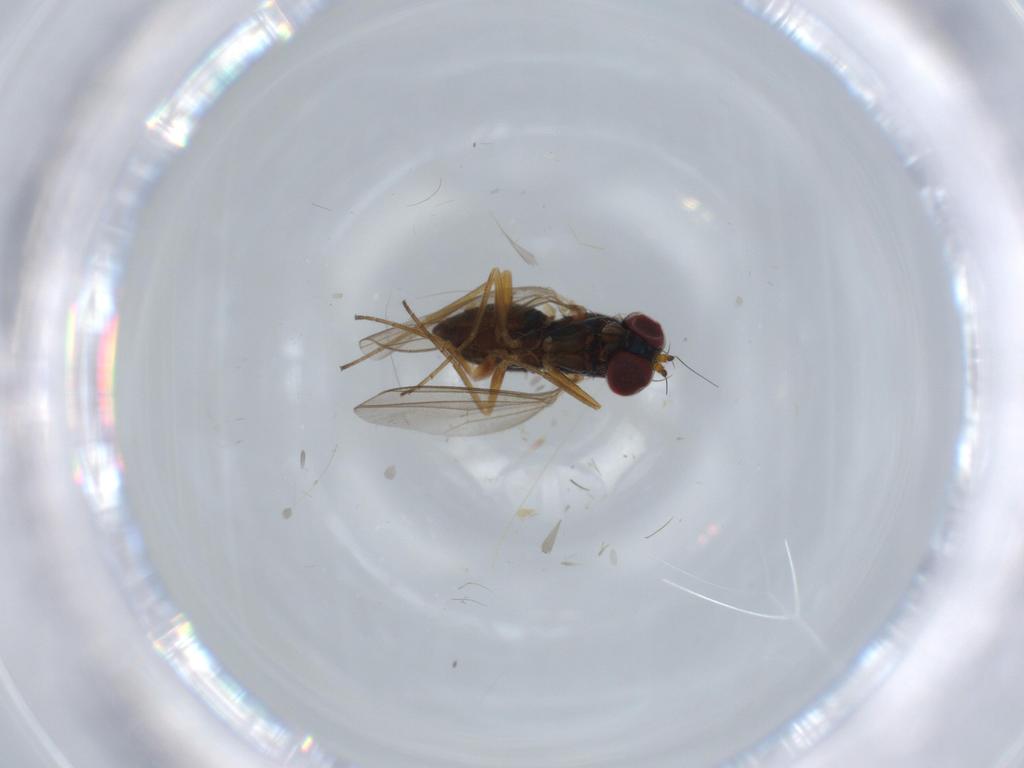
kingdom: Animalia
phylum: Arthropoda
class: Insecta
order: Diptera
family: Dolichopodidae
